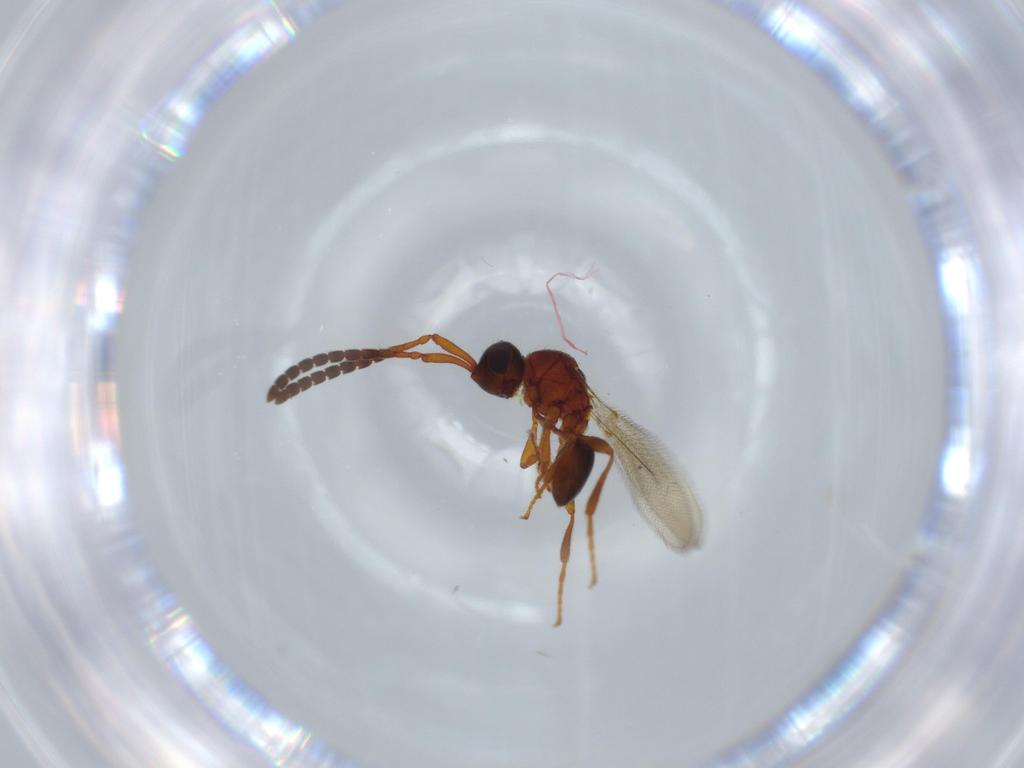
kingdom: Animalia
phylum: Arthropoda
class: Insecta
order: Hymenoptera
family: Diapriidae
